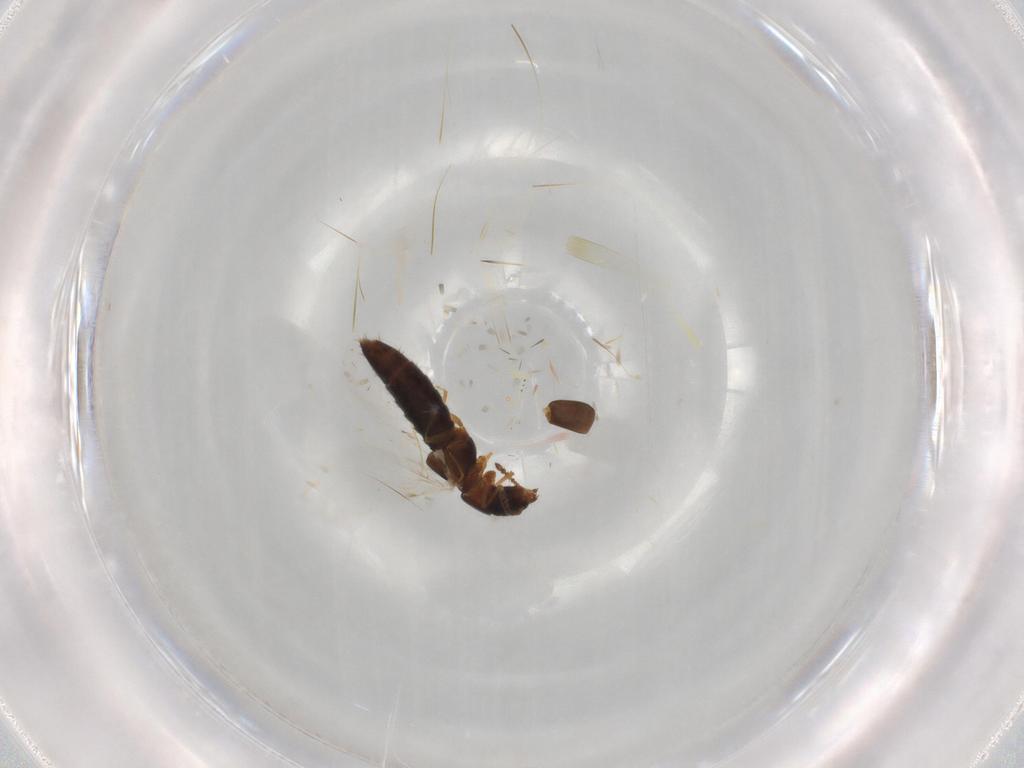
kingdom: Animalia
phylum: Arthropoda
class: Insecta
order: Coleoptera
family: Staphylinidae
